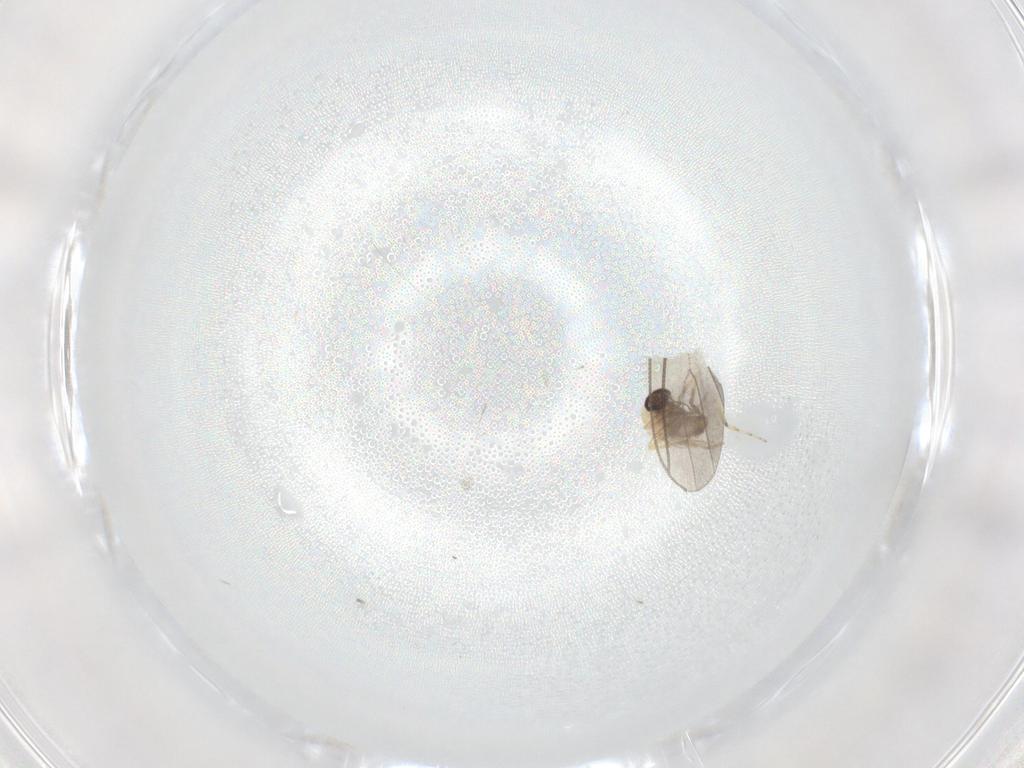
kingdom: Animalia
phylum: Arthropoda
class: Insecta
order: Diptera
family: Ceratopogonidae
